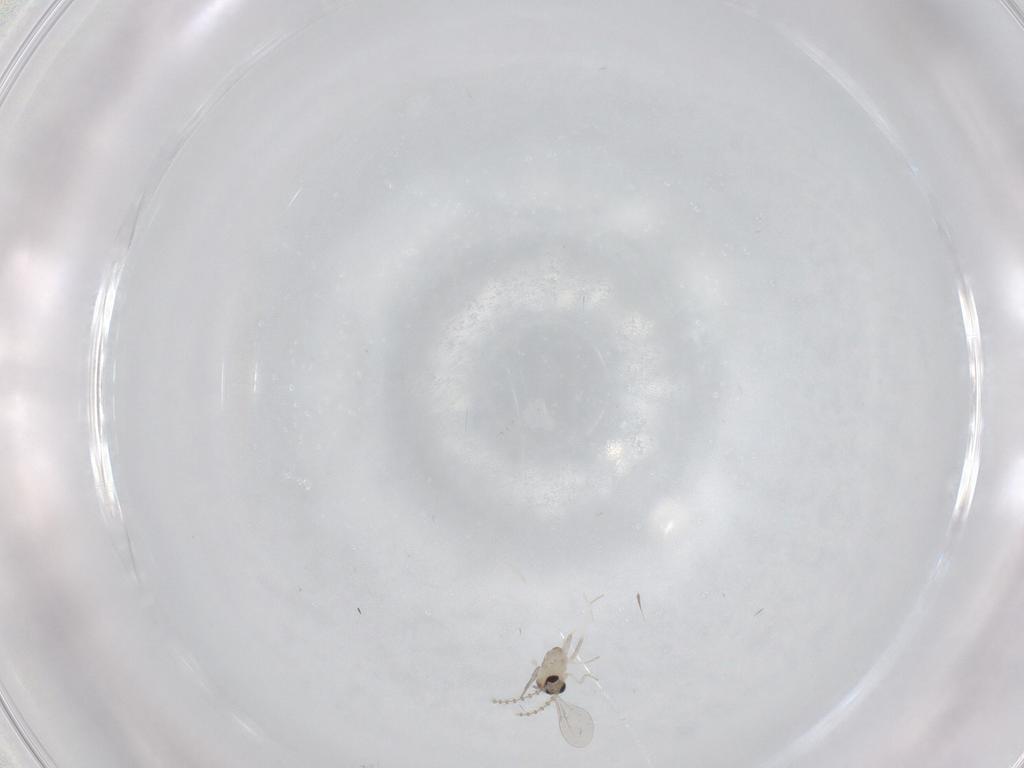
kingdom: Animalia
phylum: Arthropoda
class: Insecta
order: Diptera
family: Cecidomyiidae
